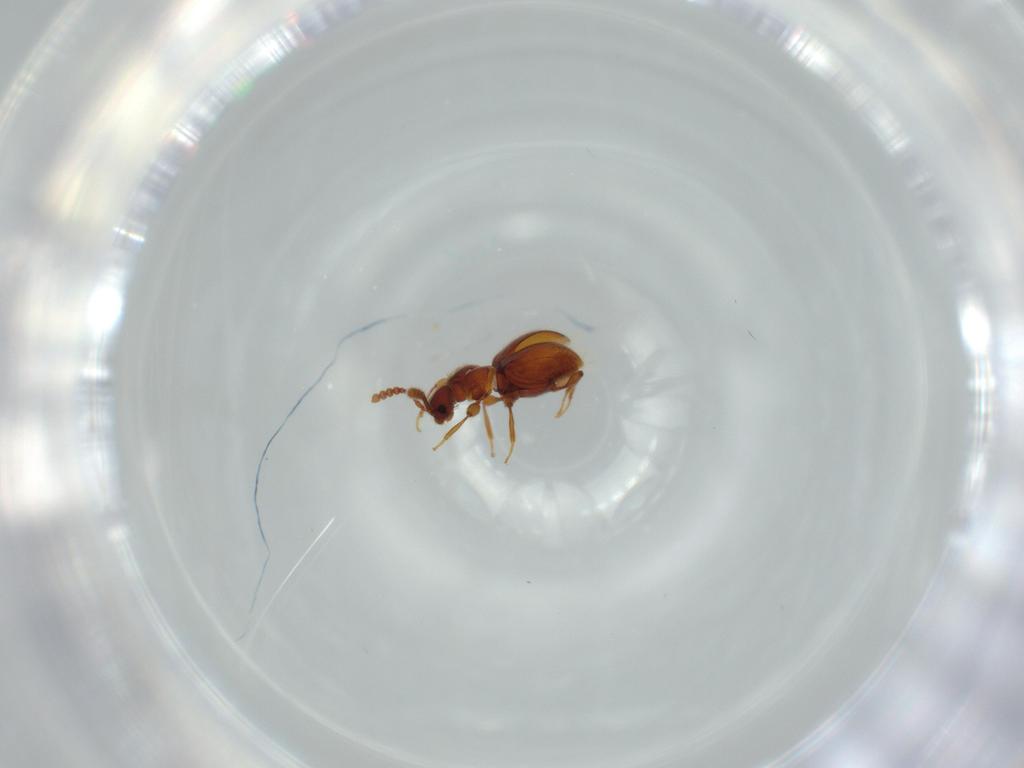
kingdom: Animalia
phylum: Arthropoda
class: Insecta
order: Coleoptera
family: Staphylinidae
